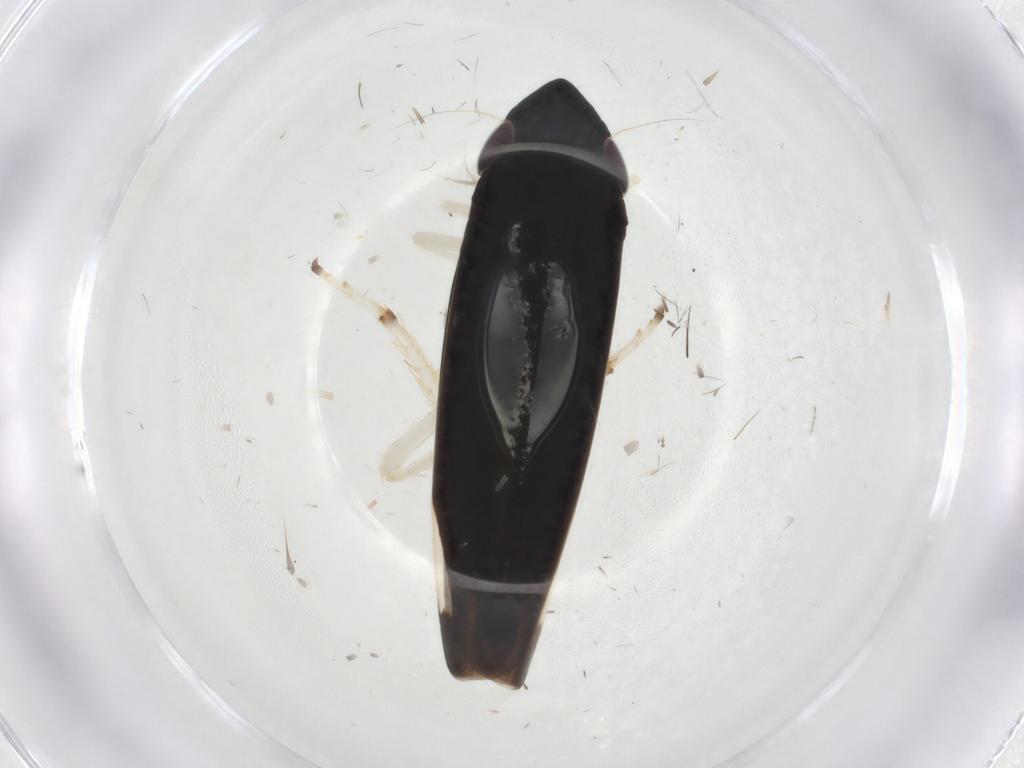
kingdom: Animalia
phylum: Arthropoda
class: Insecta
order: Hemiptera
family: Cicadellidae
